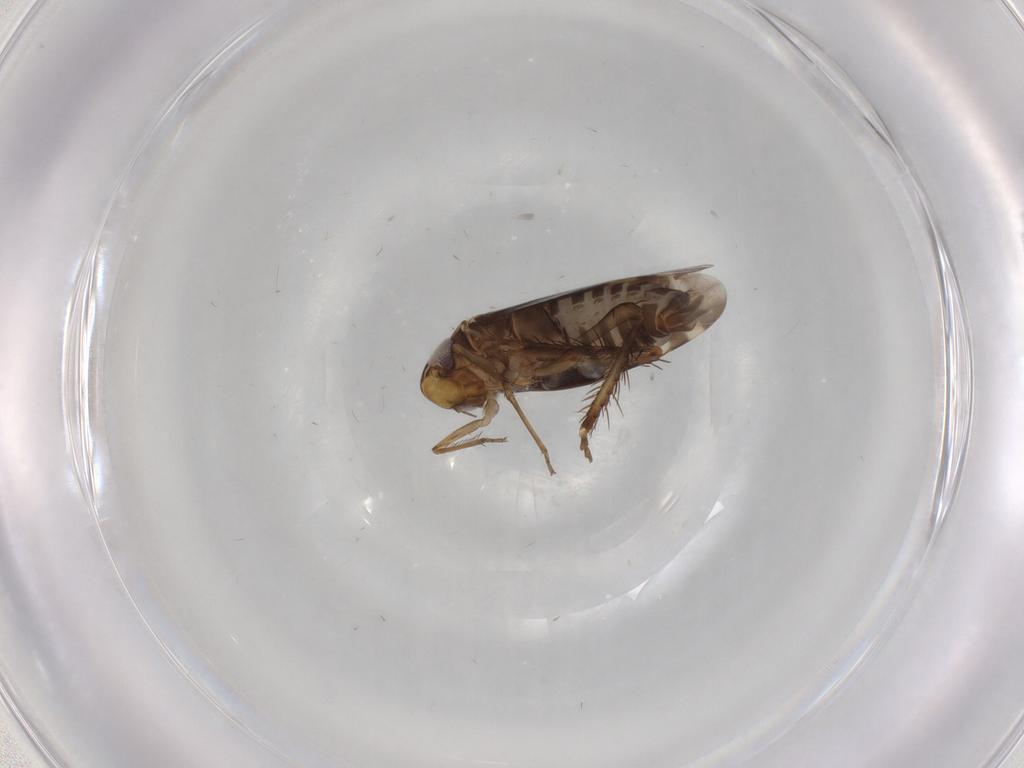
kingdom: Animalia
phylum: Arthropoda
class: Insecta
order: Hemiptera
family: Cicadellidae
